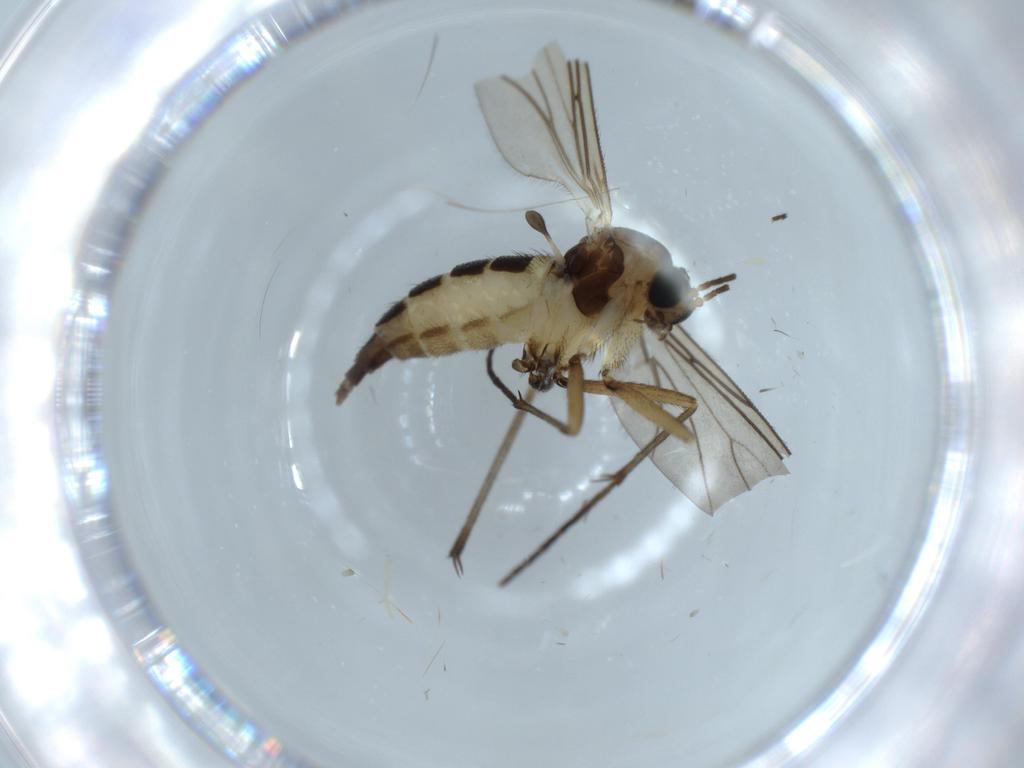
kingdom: Animalia
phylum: Arthropoda
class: Insecta
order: Diptera
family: Sciaridae
